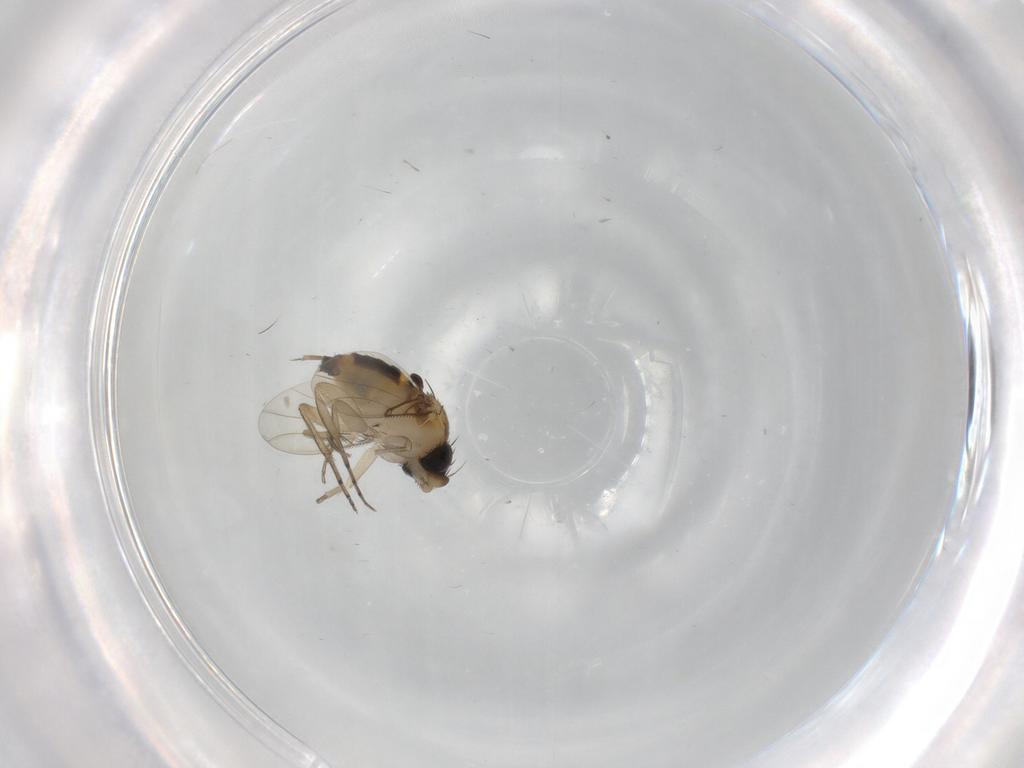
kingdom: Animalia
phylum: Arthropoda
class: Insecta
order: Diptera
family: Phoridae
